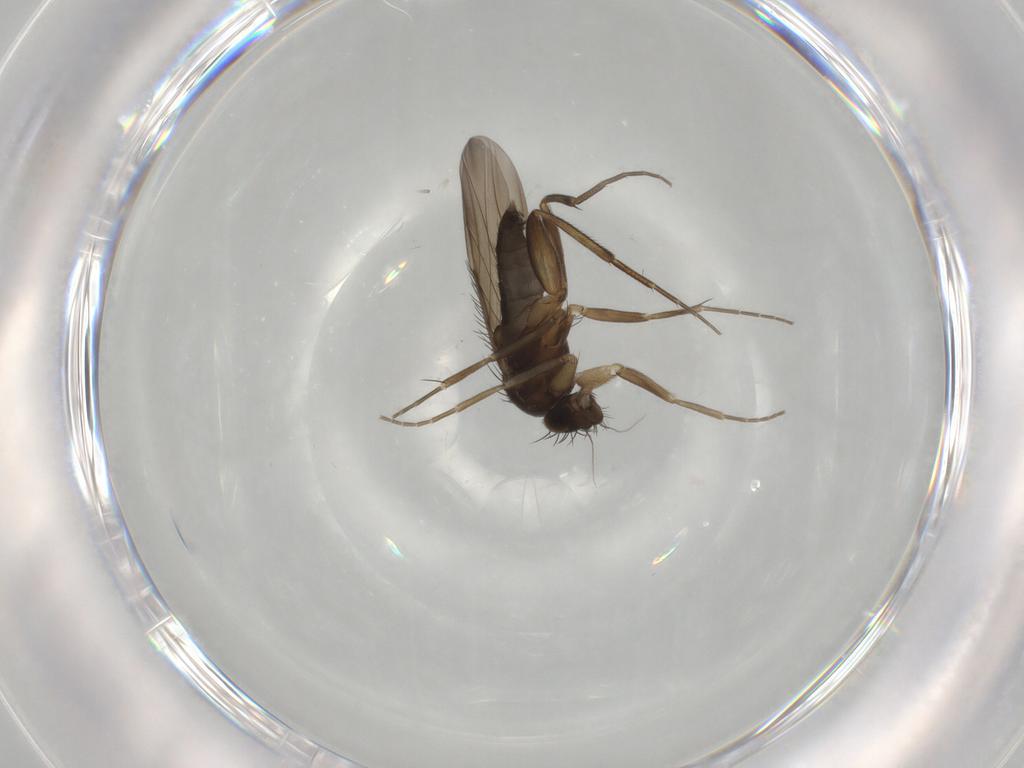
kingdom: Animalia
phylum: Arthropoda
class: Insecta
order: Diptera
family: Phoridae
